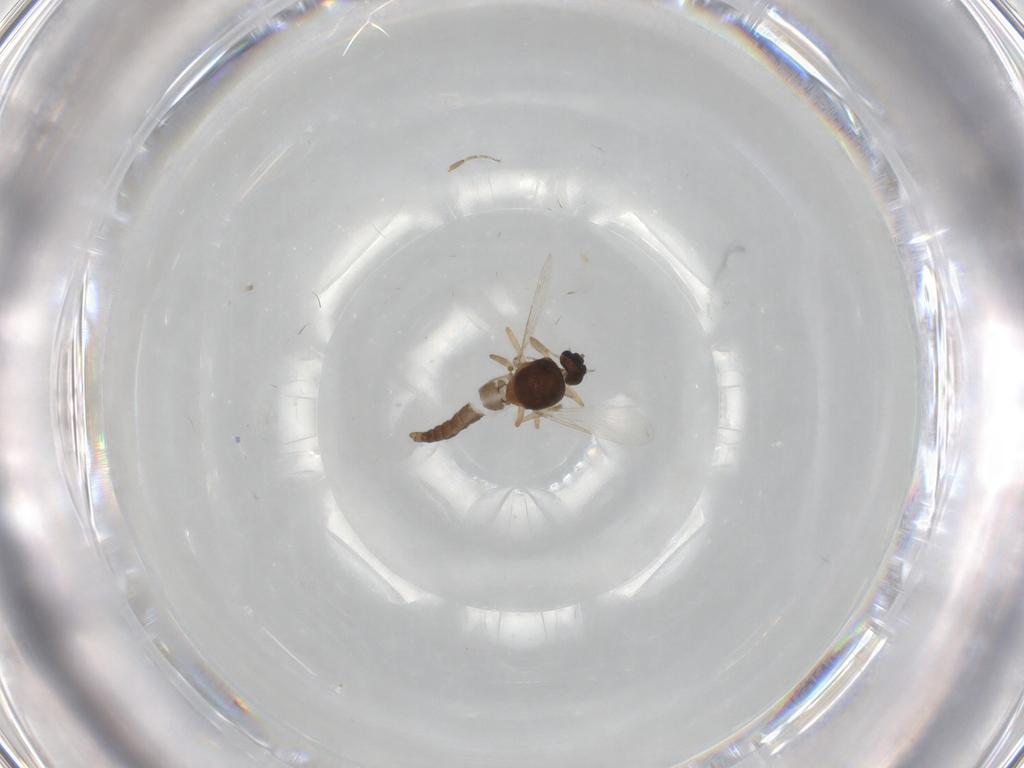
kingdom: Animalia
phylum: Arthropoda
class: Insecta
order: Diptera
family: Ceratopogonidae
